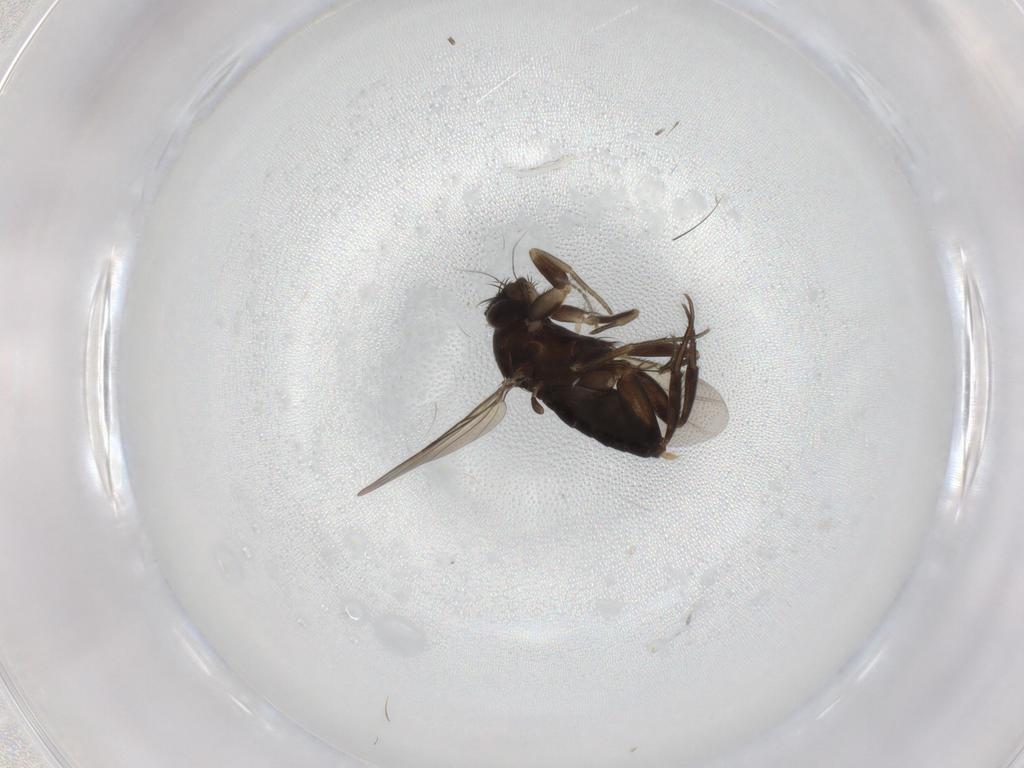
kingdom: Animalia
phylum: Arthropoda
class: Insecta
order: Diptera
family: Phoridae
